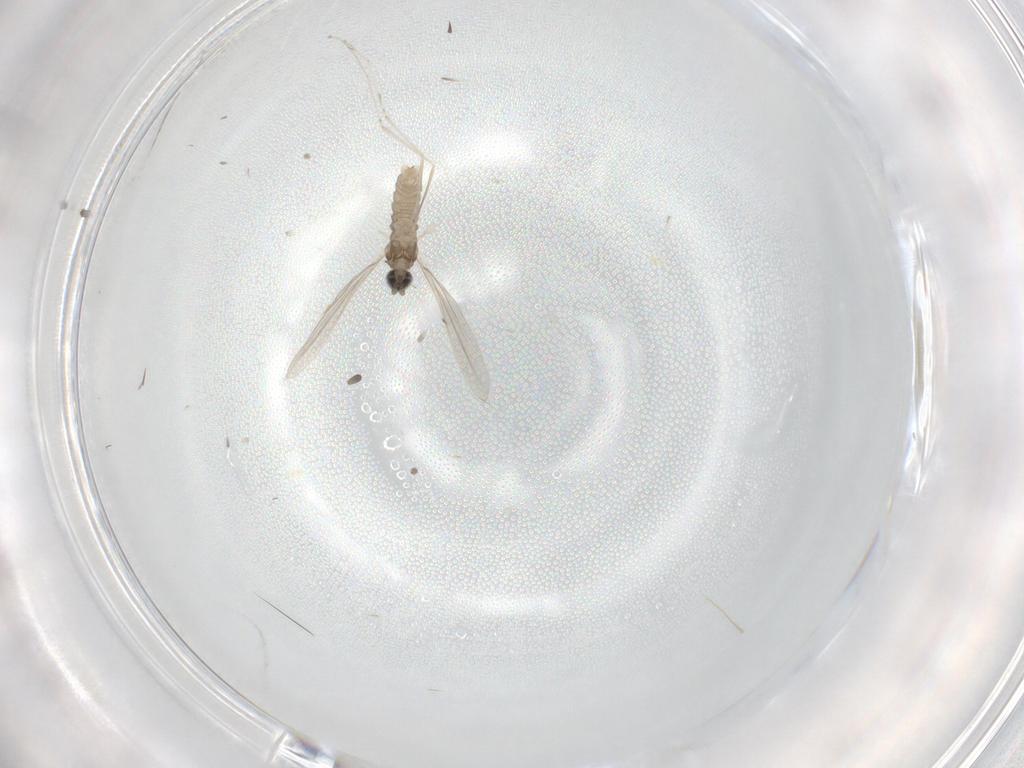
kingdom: Animalia
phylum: Arthropoda
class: Insecta
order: Diptera
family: Cecidomyiidae
